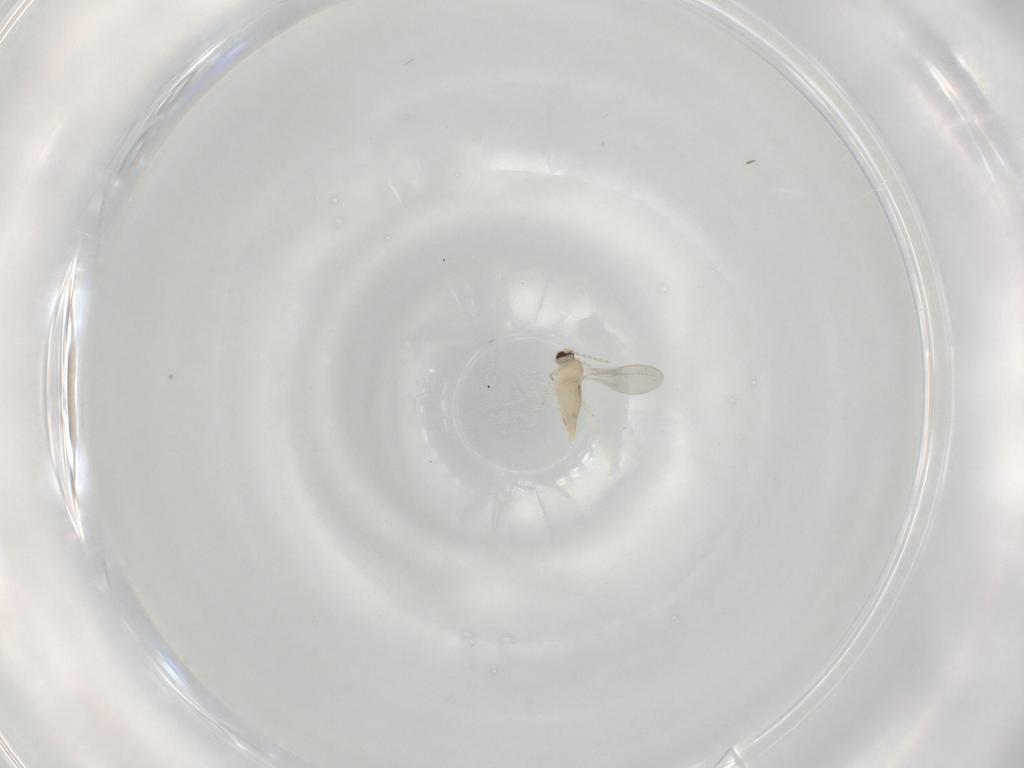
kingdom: Animalia
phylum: Arthropoda
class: Insecta
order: Diptera
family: Cecidomyiidae
